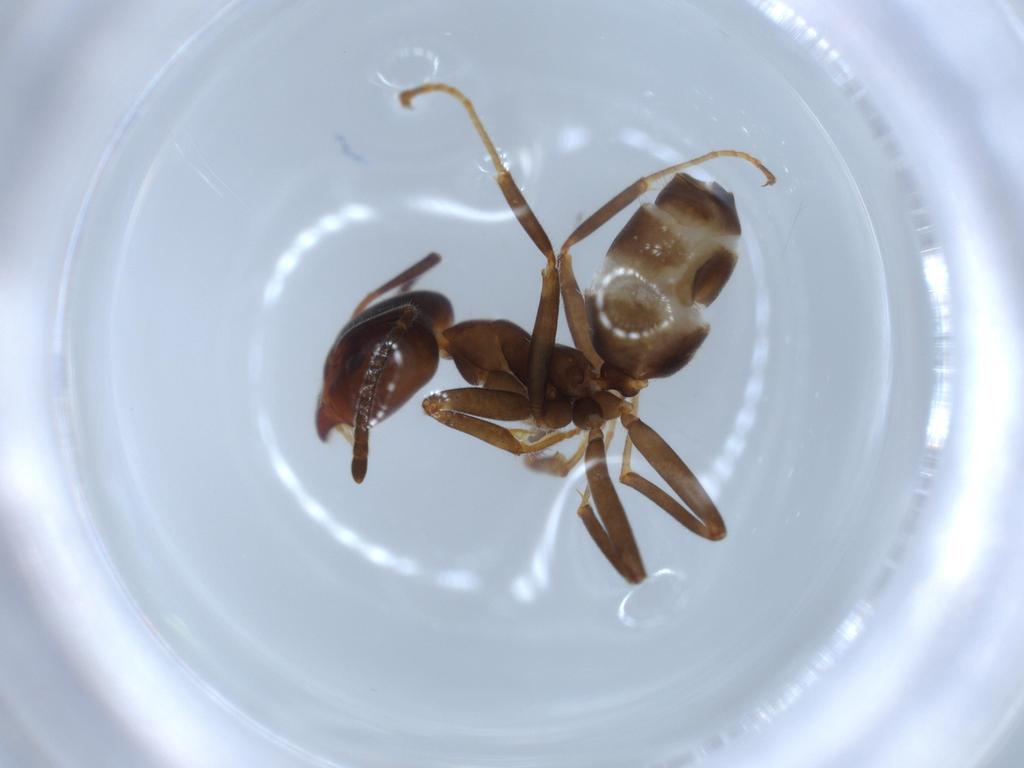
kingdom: Animalia
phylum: Arthropoda
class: Insecta
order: Hymenoptera
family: Formicidae
